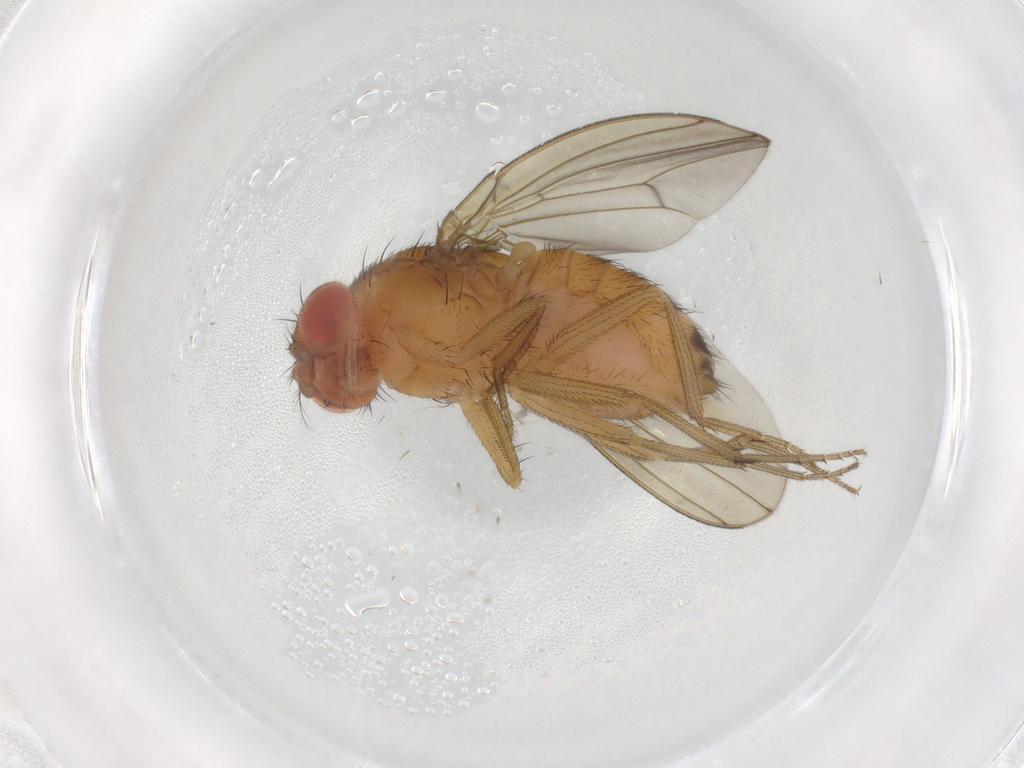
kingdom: Animalia
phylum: Arthropoda
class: Insecta
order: Diptera
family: Drosophilidae
